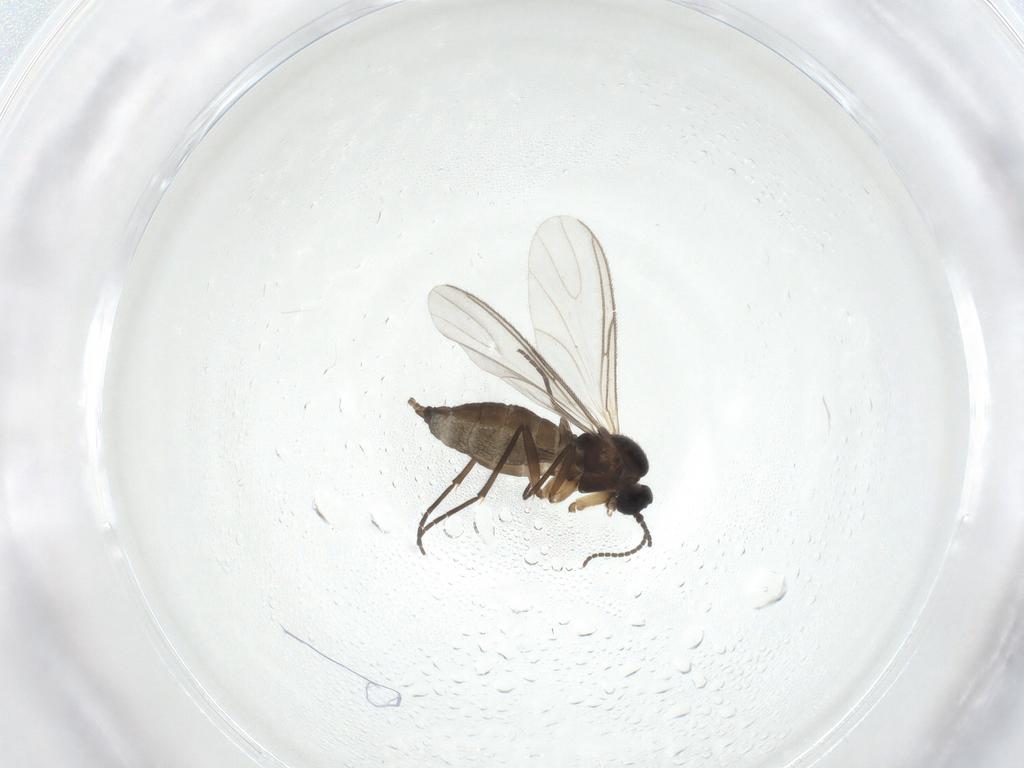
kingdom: Animalia
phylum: Arthropoda
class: Insecta
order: Diptera
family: Sciaridae
